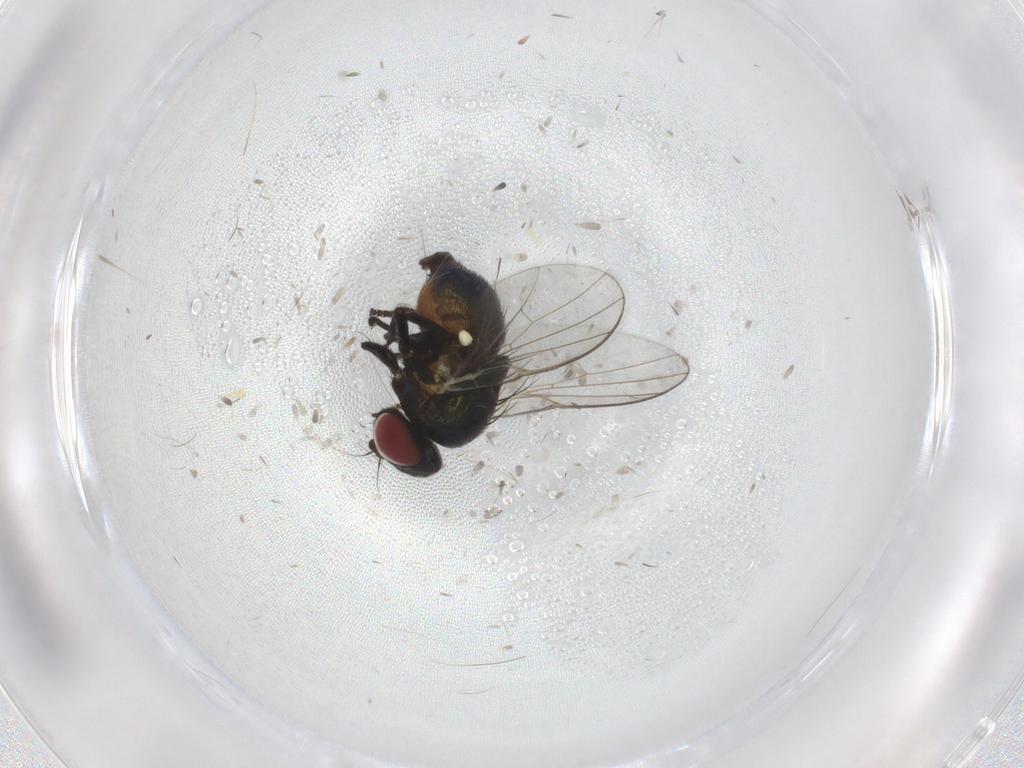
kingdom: Animalia
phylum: Arthropoda
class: Insecta
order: Diptera
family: Agromyzidae
